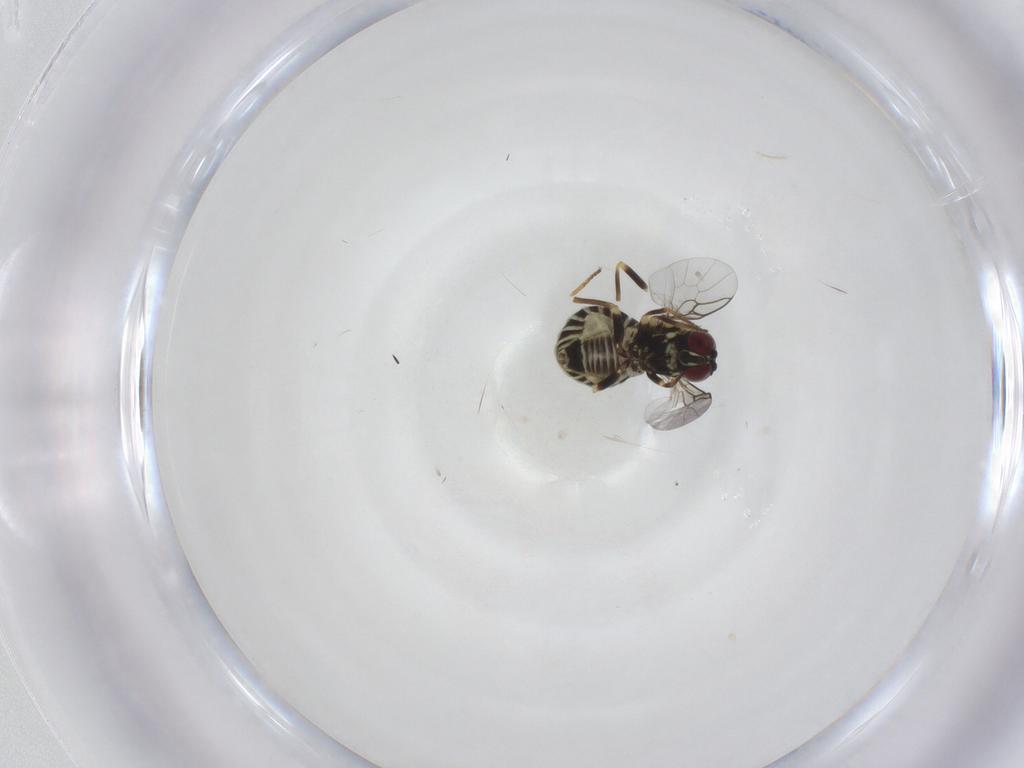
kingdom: Animalia
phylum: Arthropoda
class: Insecta
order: Diptera
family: Mythicomyiidae
